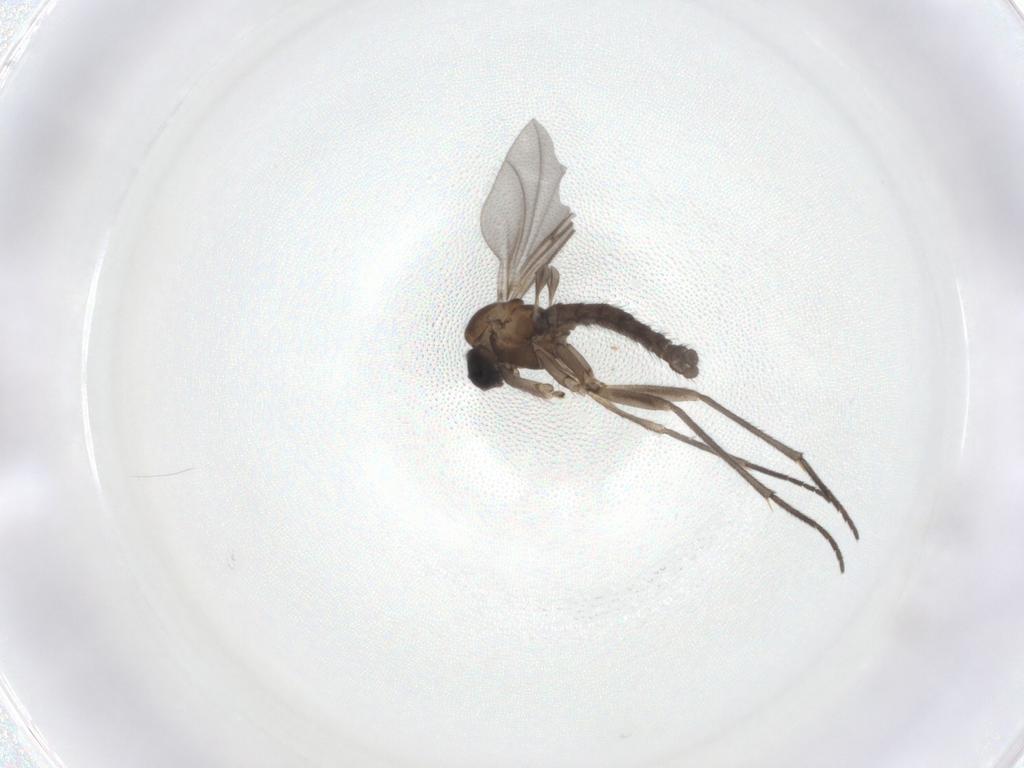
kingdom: Animalia
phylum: Arthropoda
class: Insecta
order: Diptera
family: Sciaridae
